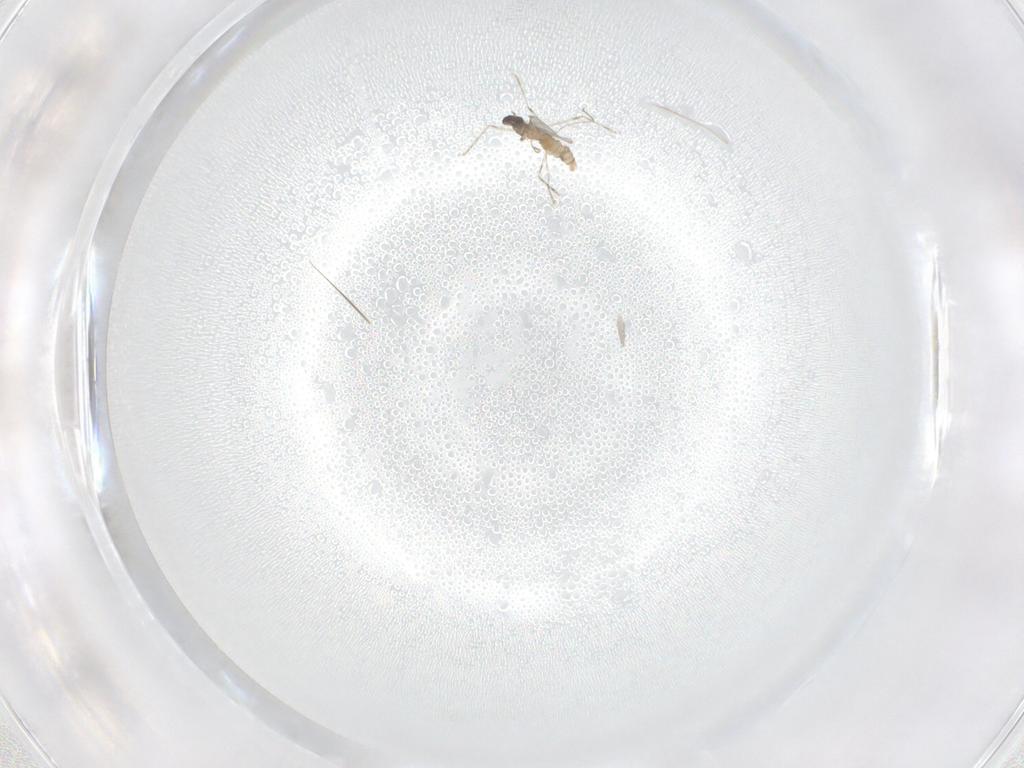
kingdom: Animalia
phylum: Arthropoda
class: Insecta
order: Diptera
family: Cecidomyiidae
